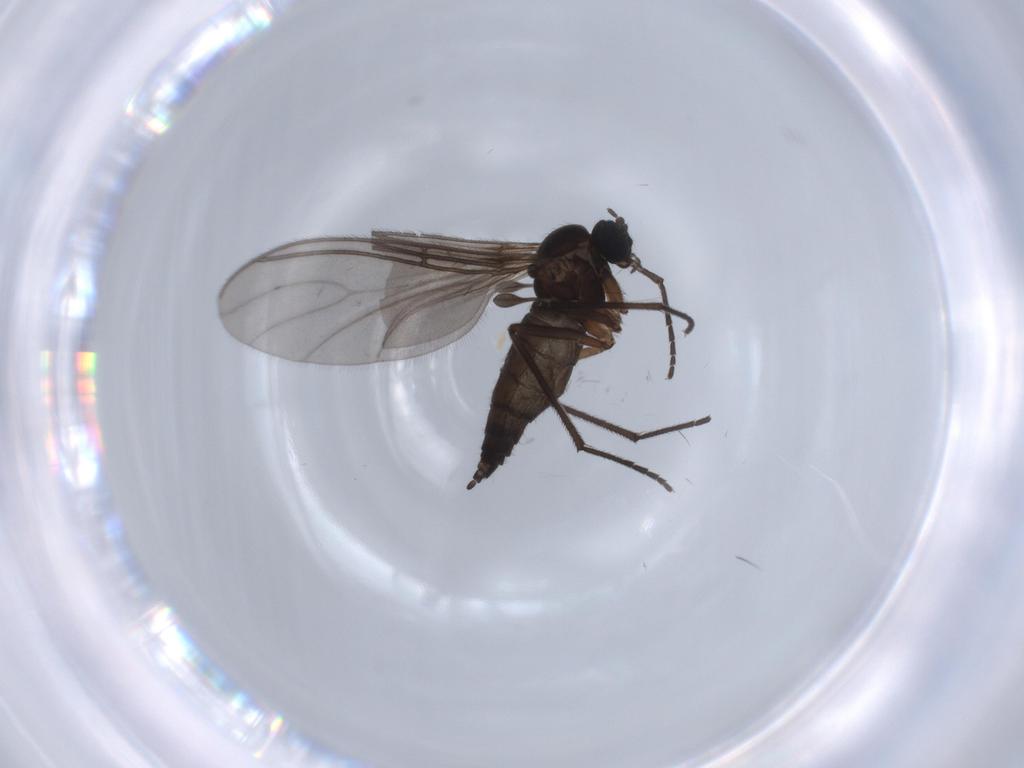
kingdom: Animalia
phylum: Arthropoda
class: Insecta
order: Diptera
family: Sciaridae
